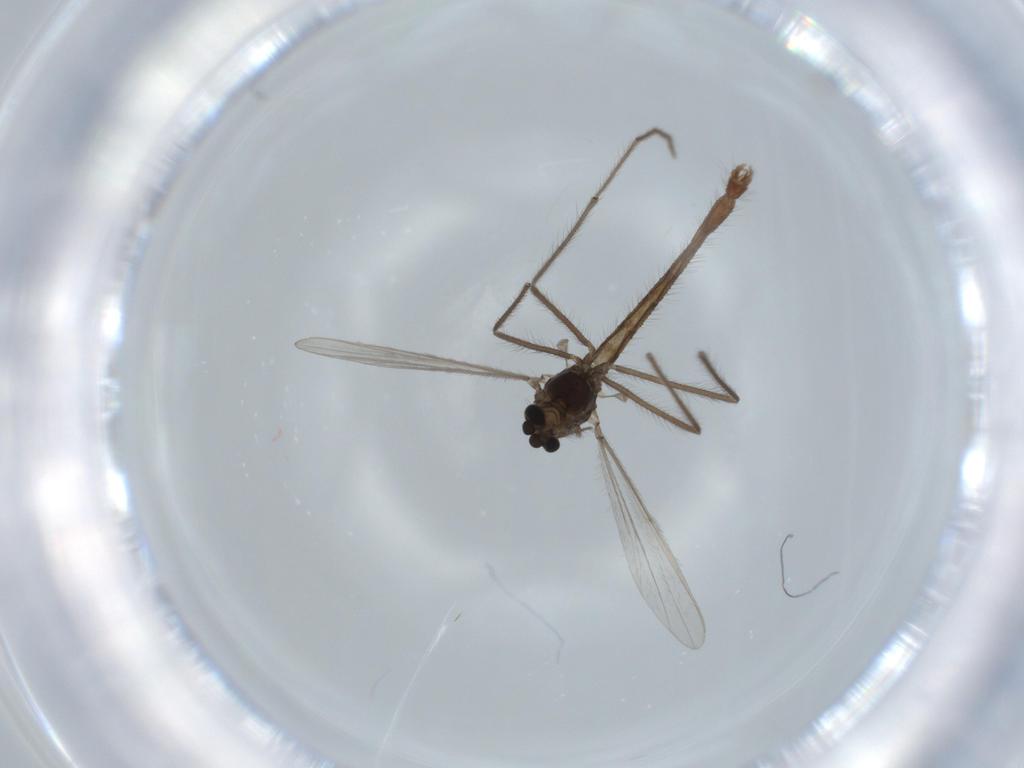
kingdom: Animalia
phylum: Arthropoda
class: Insecta
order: Diptera
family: Chironomidae
